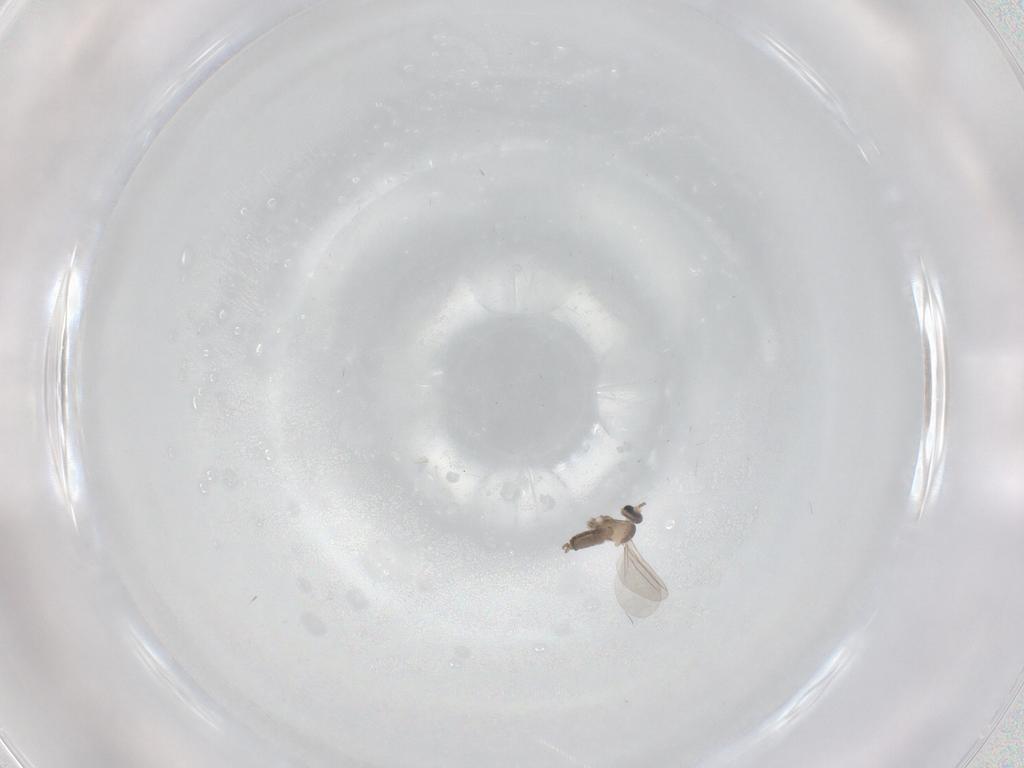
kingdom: Animalia
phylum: Arthropoda
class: Insecta
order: Diptera
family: Cecidomyiidae
